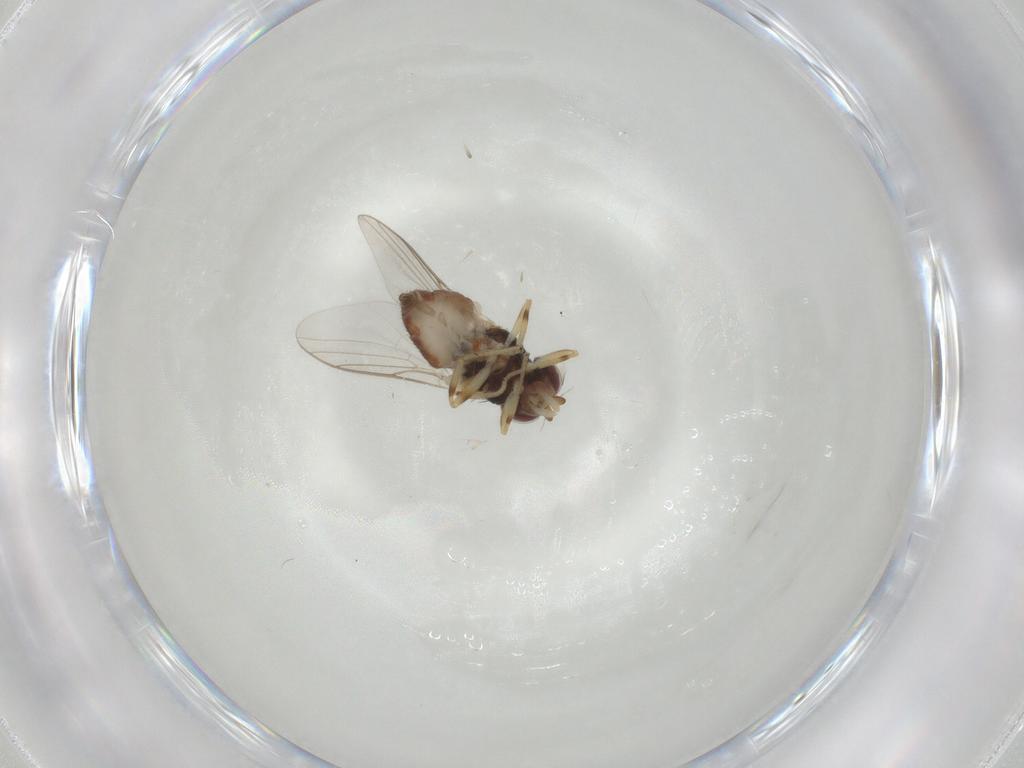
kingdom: Animalia
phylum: Arthropoda
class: Insecta
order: Diptera
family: Chloropidae
